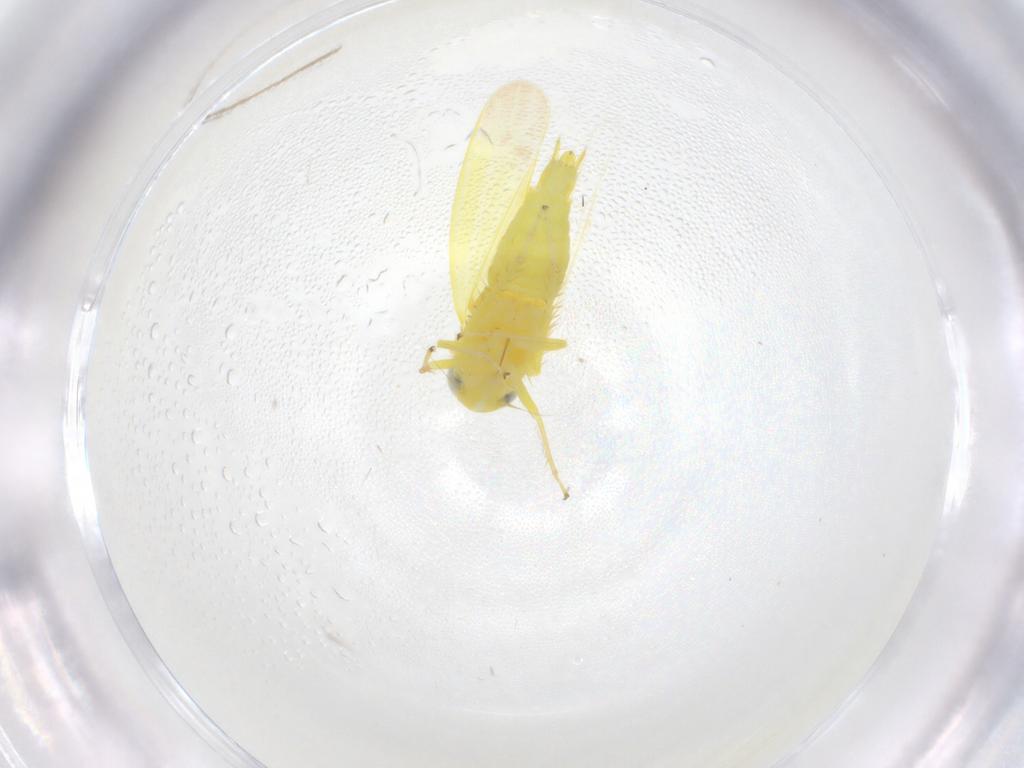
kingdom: Animalia
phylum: Arthropoda
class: Insecta
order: Hemiptera
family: Cicadellidae
